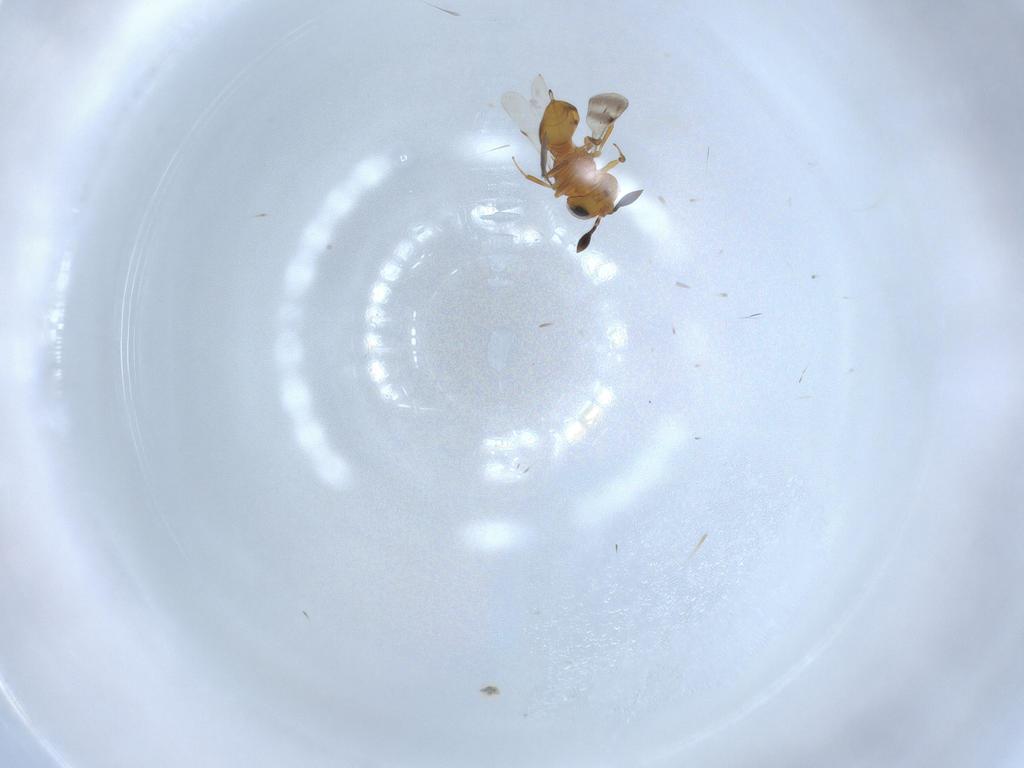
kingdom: Animalia
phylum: Arthropoda
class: Insecta
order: Hymenoptera
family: Scelionidae
